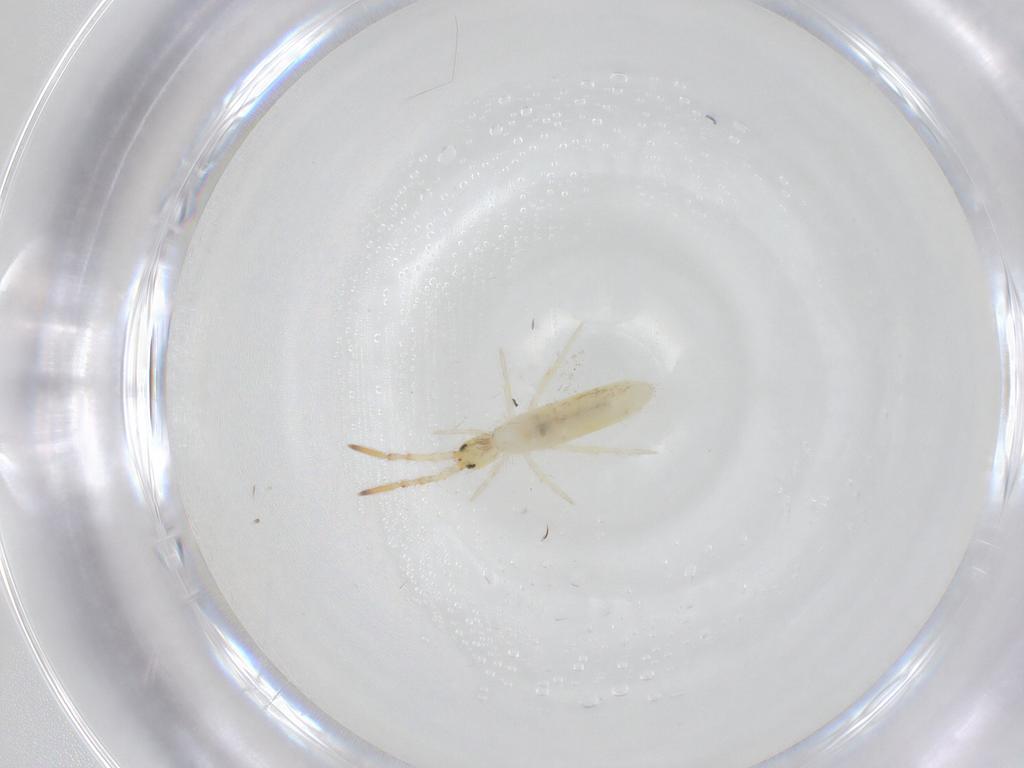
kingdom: Animalia
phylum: Arthropoda
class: Collembola
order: Entomobryomorpha
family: Entomobryidae
